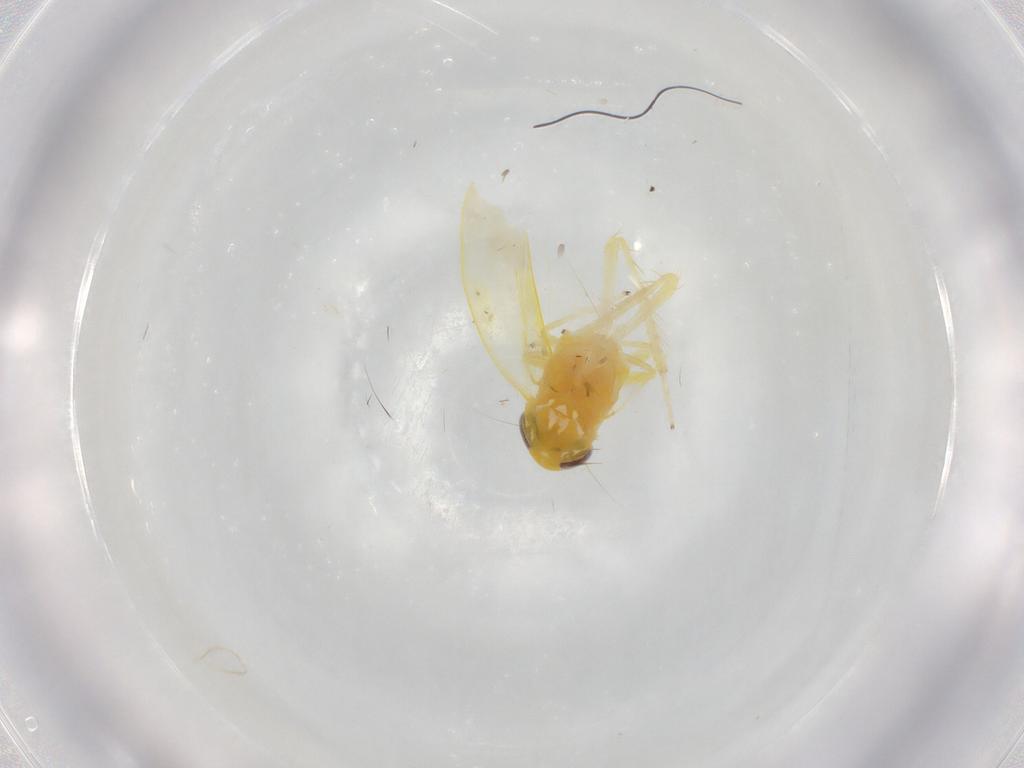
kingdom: Animalia
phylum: Arthropoda
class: Insecta
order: Hemiptera
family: Cicadellidae
